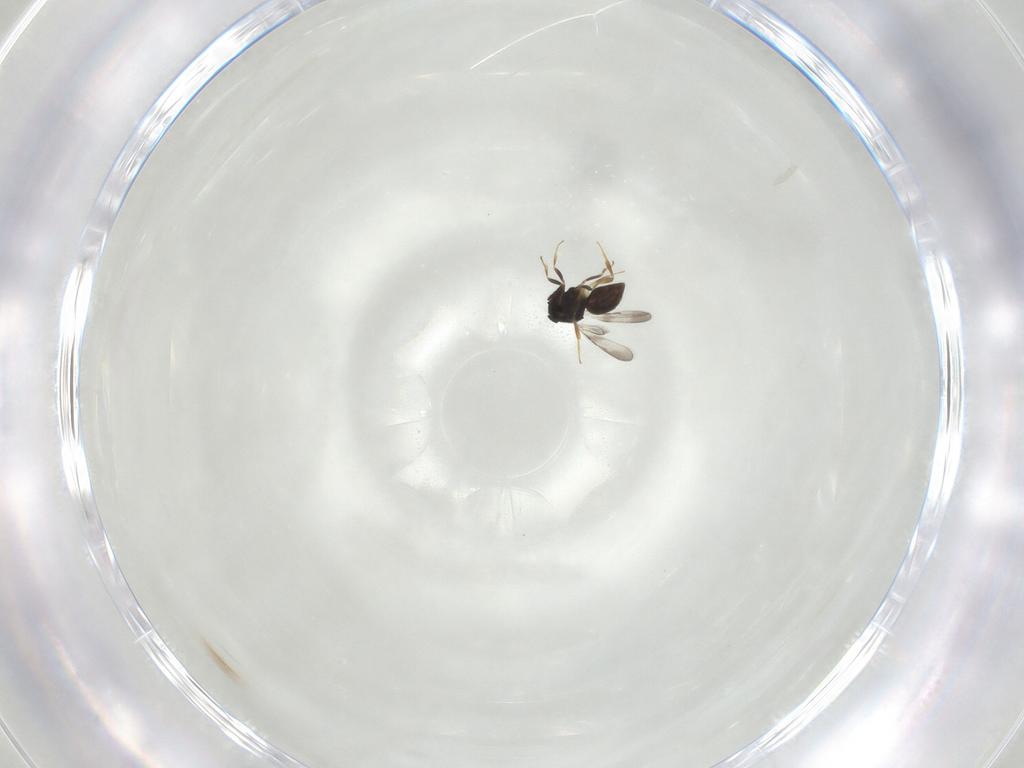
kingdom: Animalia
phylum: Arthropoda
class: Insecta
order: Hymenoptera
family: Ceraphronidae
